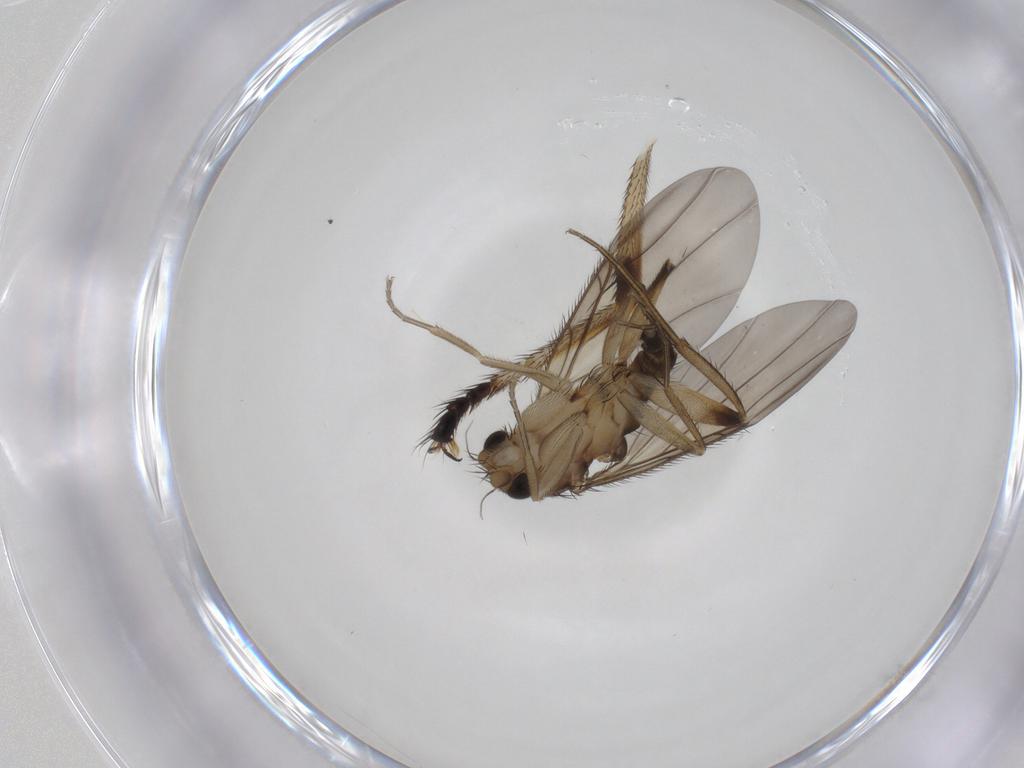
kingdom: Animalia
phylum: Arthropoda
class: Insecta
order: Diptera
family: Phoridae
